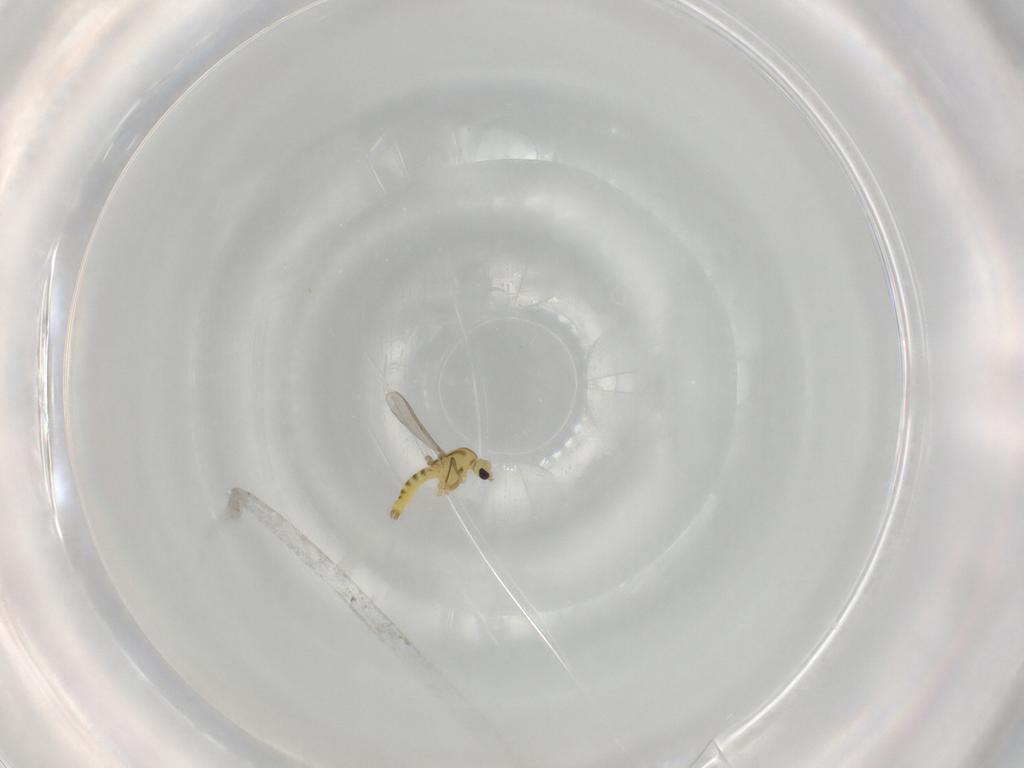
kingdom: Animalia
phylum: Arthropoda
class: Insecta
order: Diptera
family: Chironomidae
